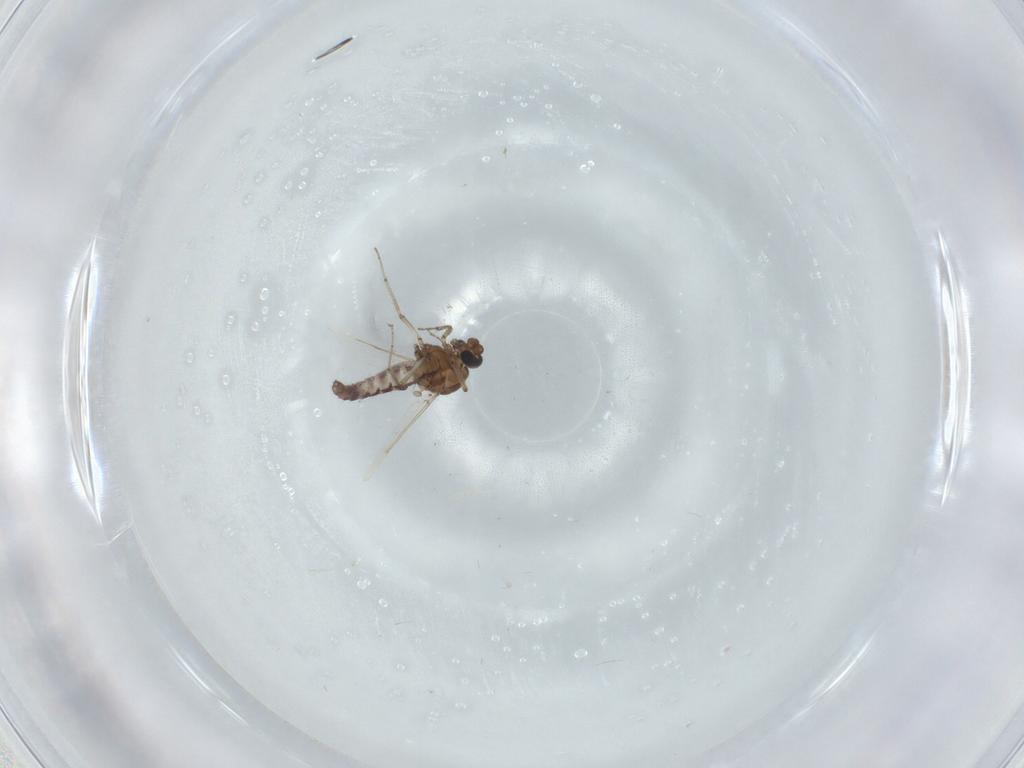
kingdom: Animalia
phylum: Arthropoda
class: Insecta
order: Diptera
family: Ceratopogonidae
